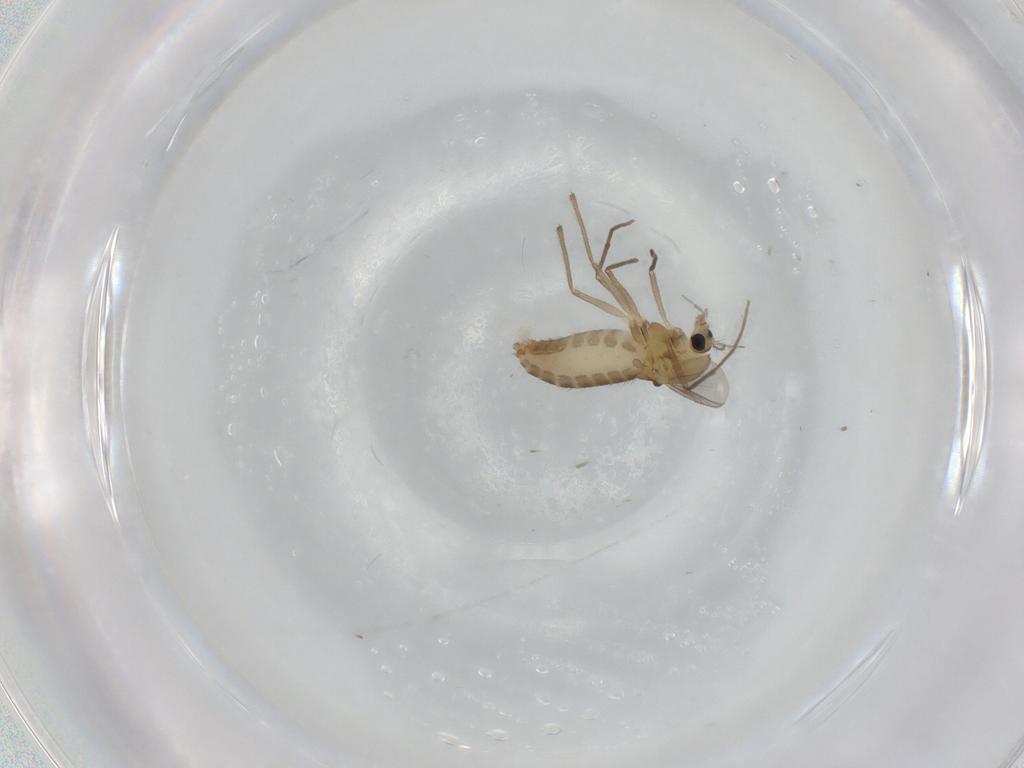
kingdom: Animalia
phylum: Arthropoda
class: Insecta
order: Diptera
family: Chironomidae
